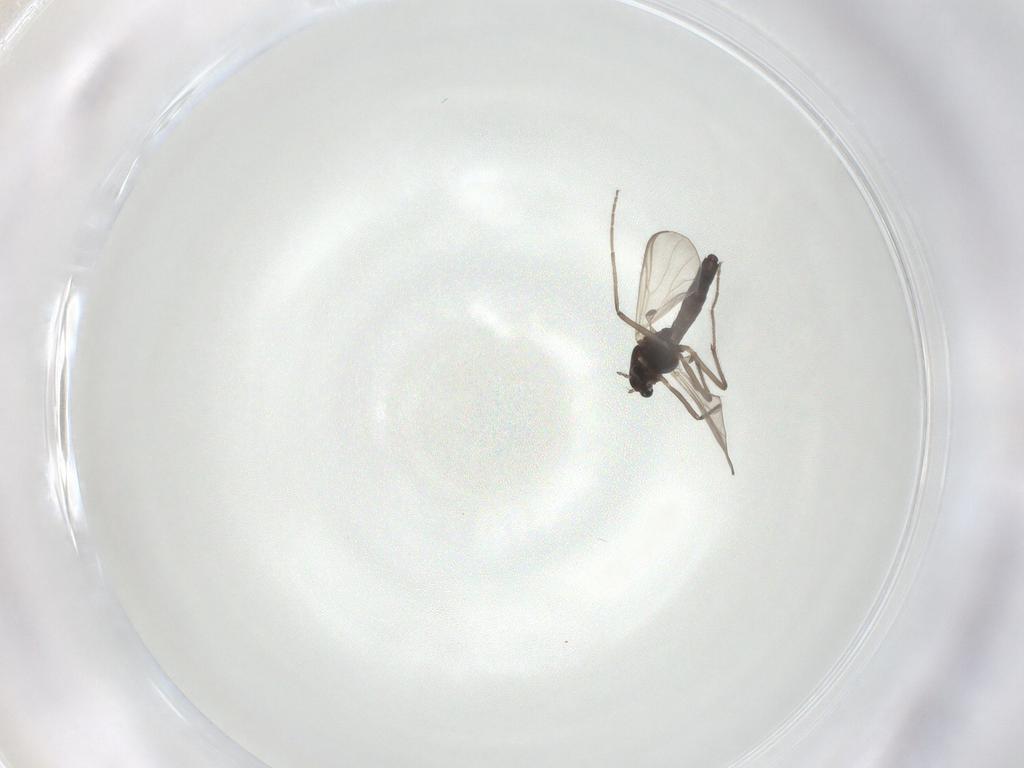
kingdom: Animalia
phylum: Arthropoda
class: Insecta
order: Diptera
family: Chironomidae
